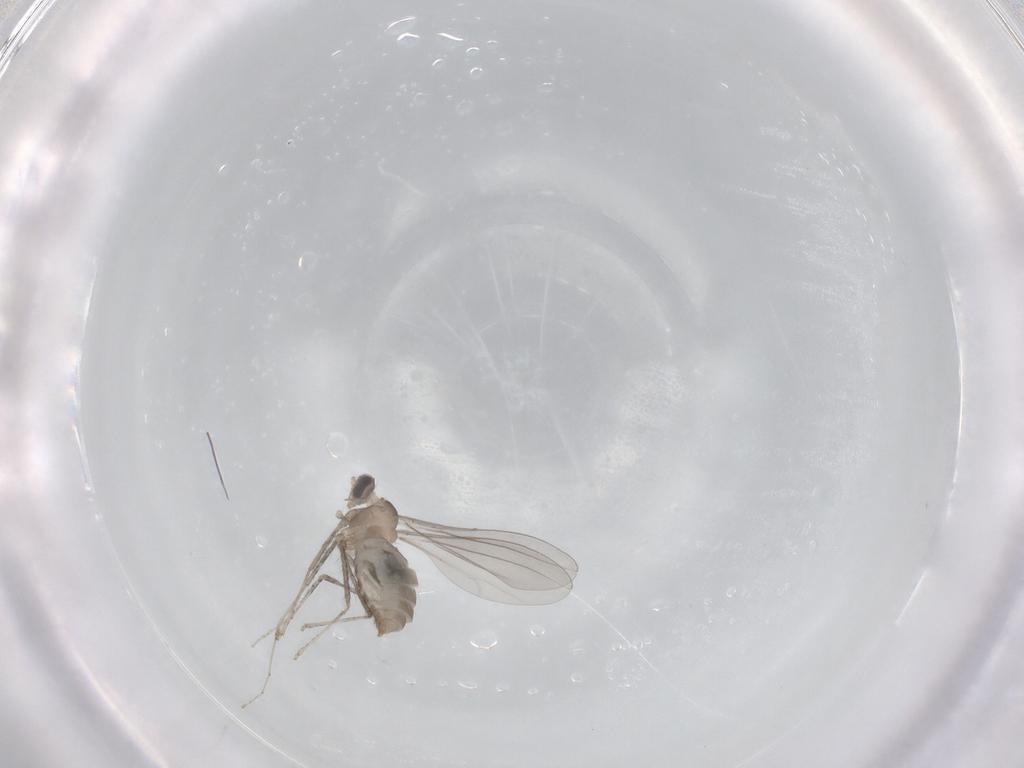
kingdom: Animalia
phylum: Arthropoda
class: Insecta
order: Diptera
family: Cecidomyiidae
